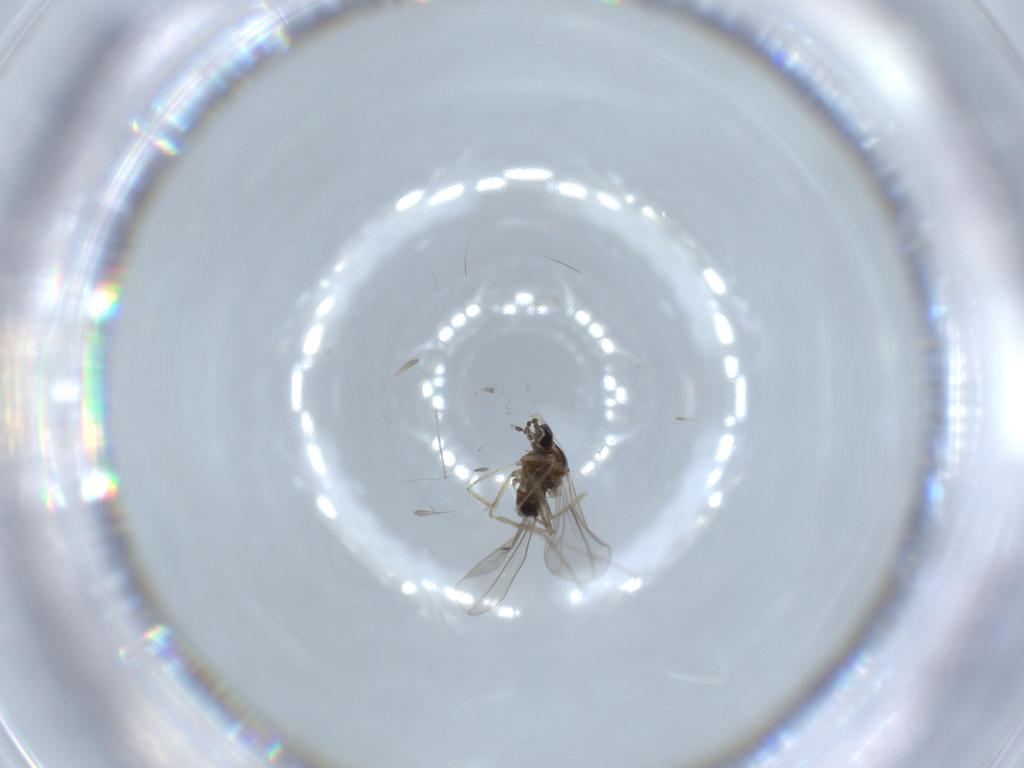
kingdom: Animalia
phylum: Arthropoda
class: Insecta
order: Diptera
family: Cecidomyiidae
